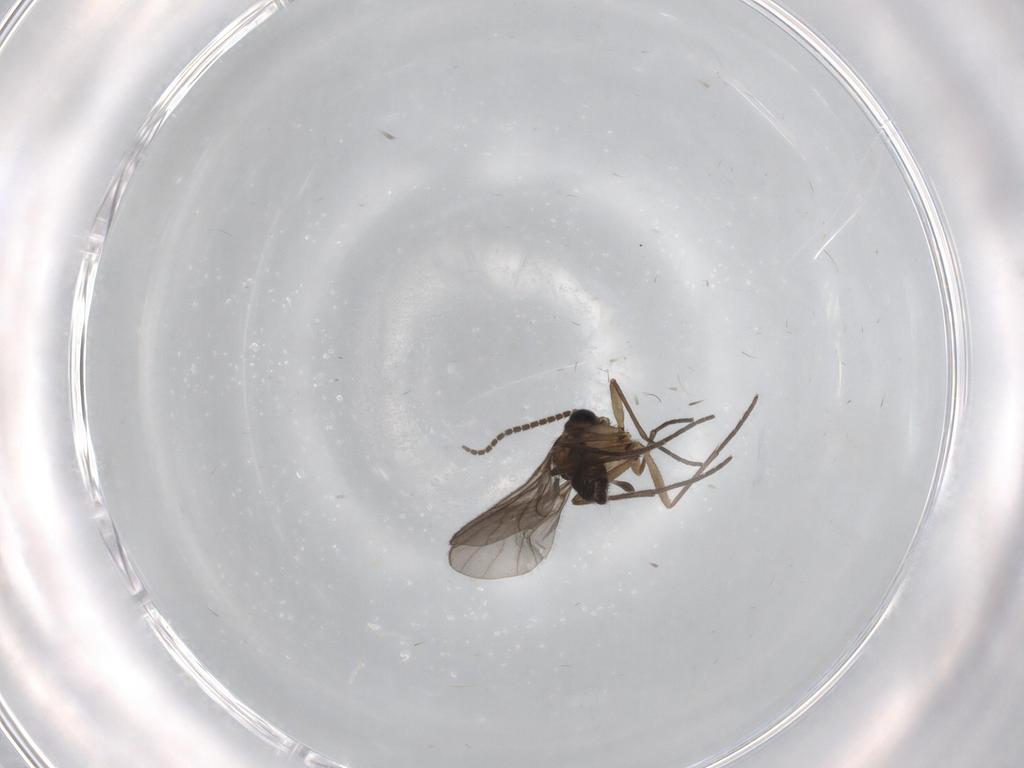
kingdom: Animalia
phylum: Arthropoda
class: Insecta
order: Diptera
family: Sciaridae
